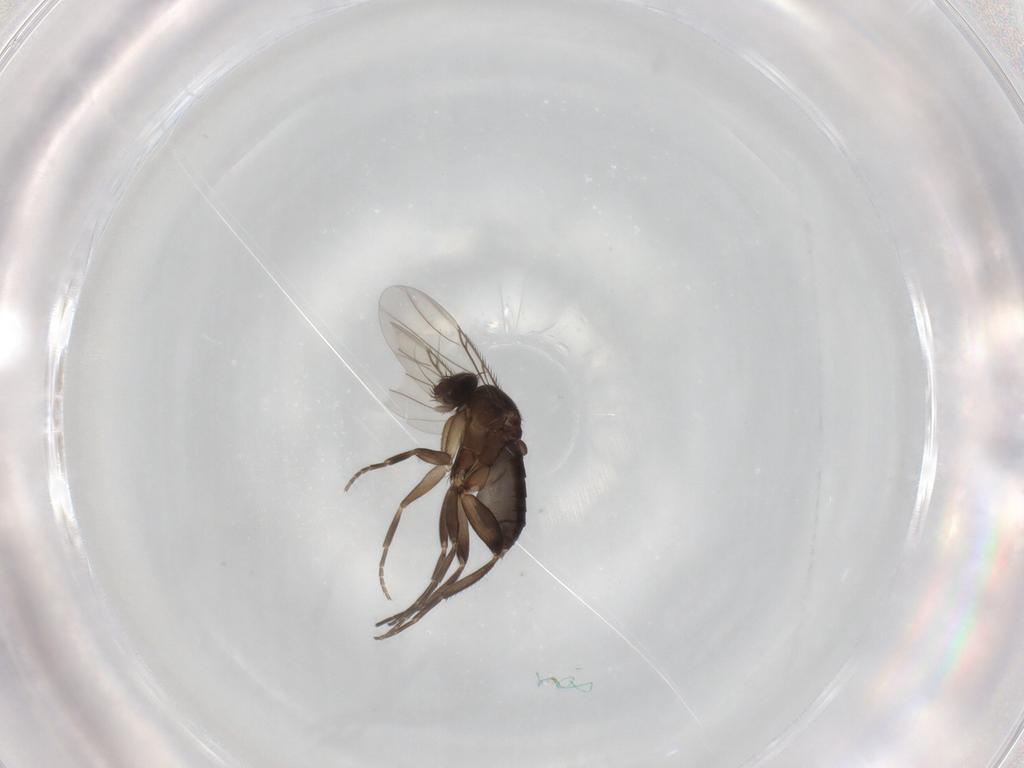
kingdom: Animalia
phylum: Arthropoda
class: Insecta
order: Diptera
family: Phoridae
